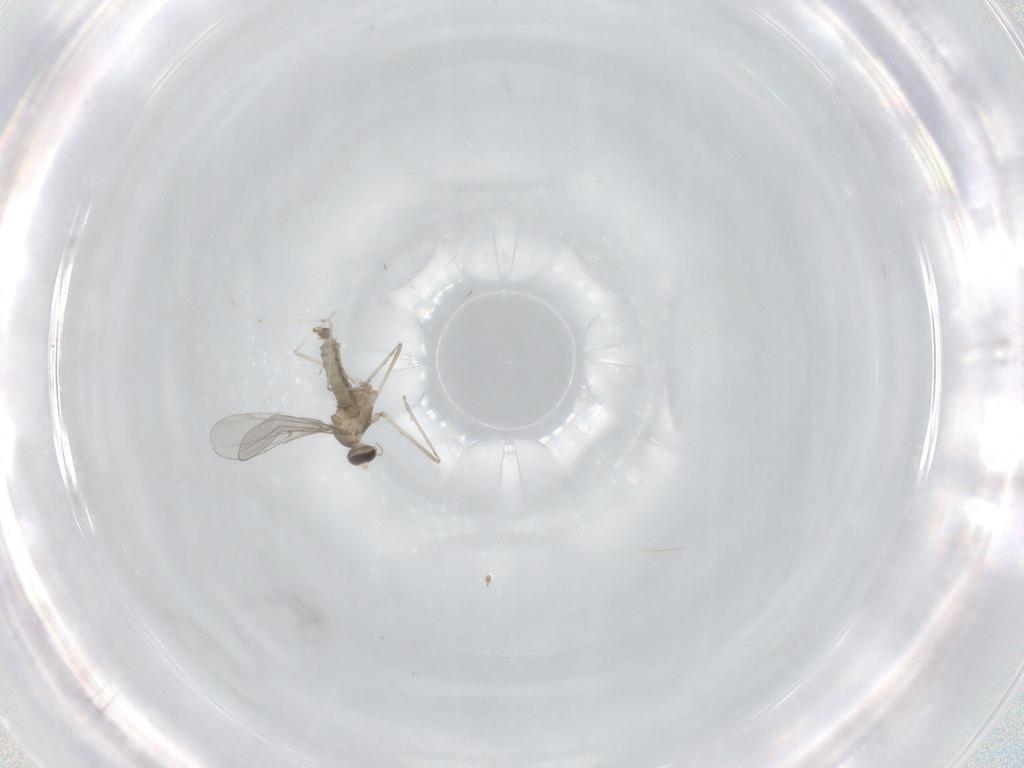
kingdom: Animalia
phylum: Arthropoda
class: Insecta
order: Diptera
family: Cecidomyiidae
